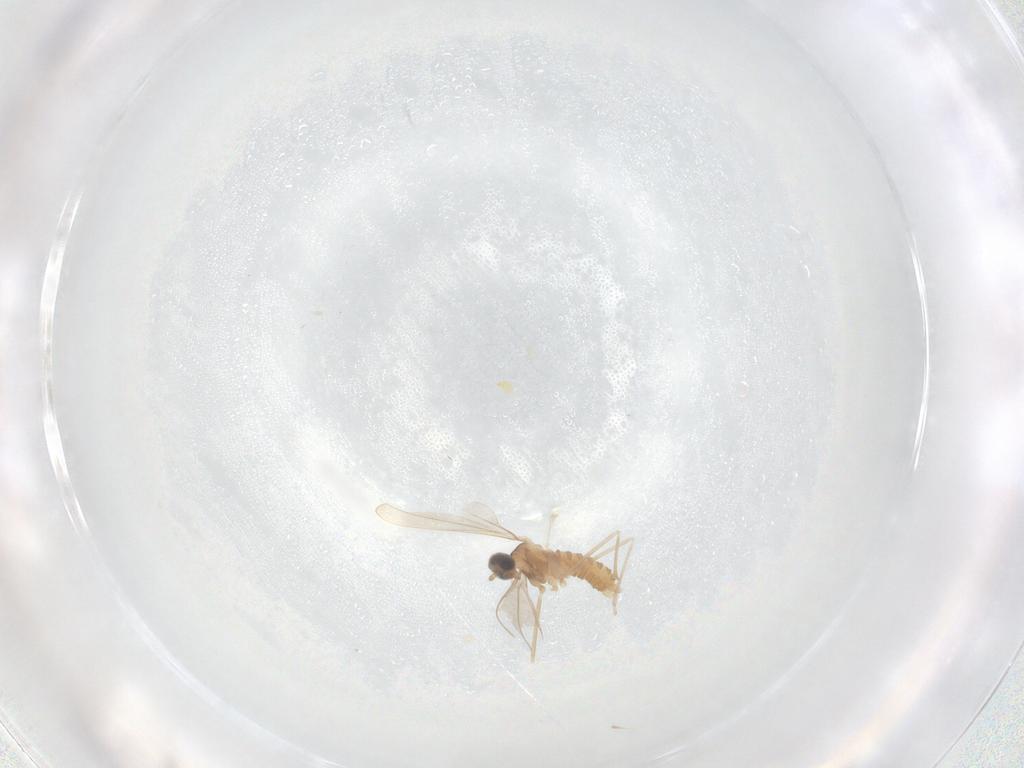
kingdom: Animalia
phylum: Arthropoda
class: Insecta
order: Diptera
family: Cecidomyiidae
